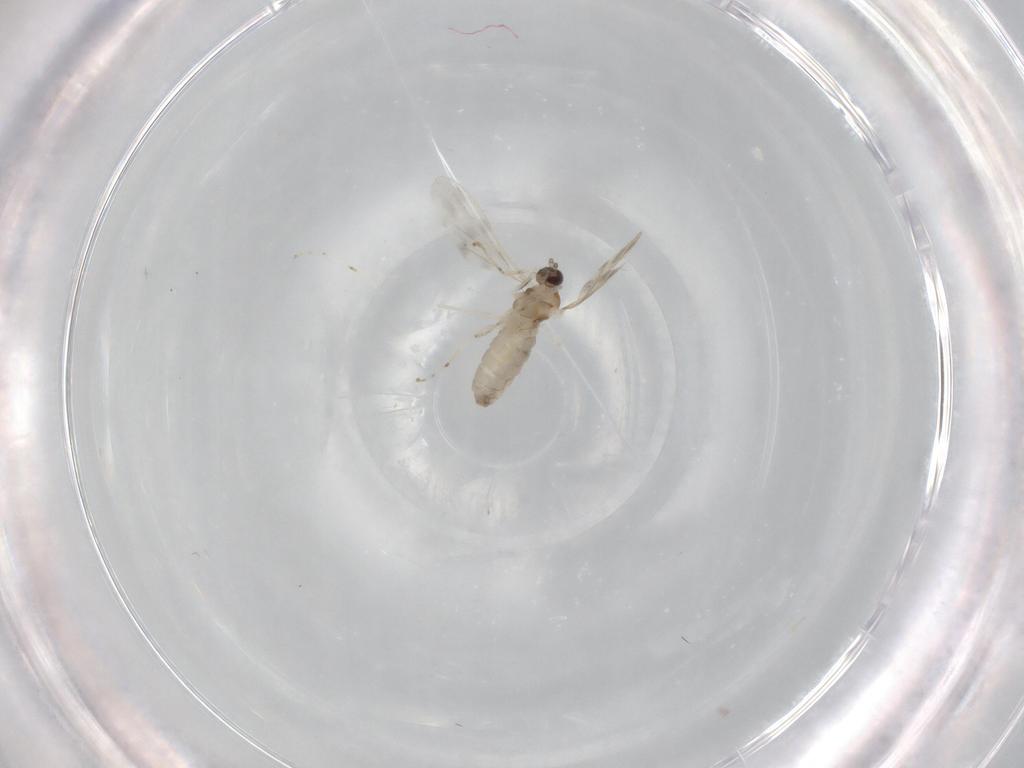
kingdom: Animalia
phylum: Arthropoda
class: Insecta
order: Diptera
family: Cecidomyiidae
